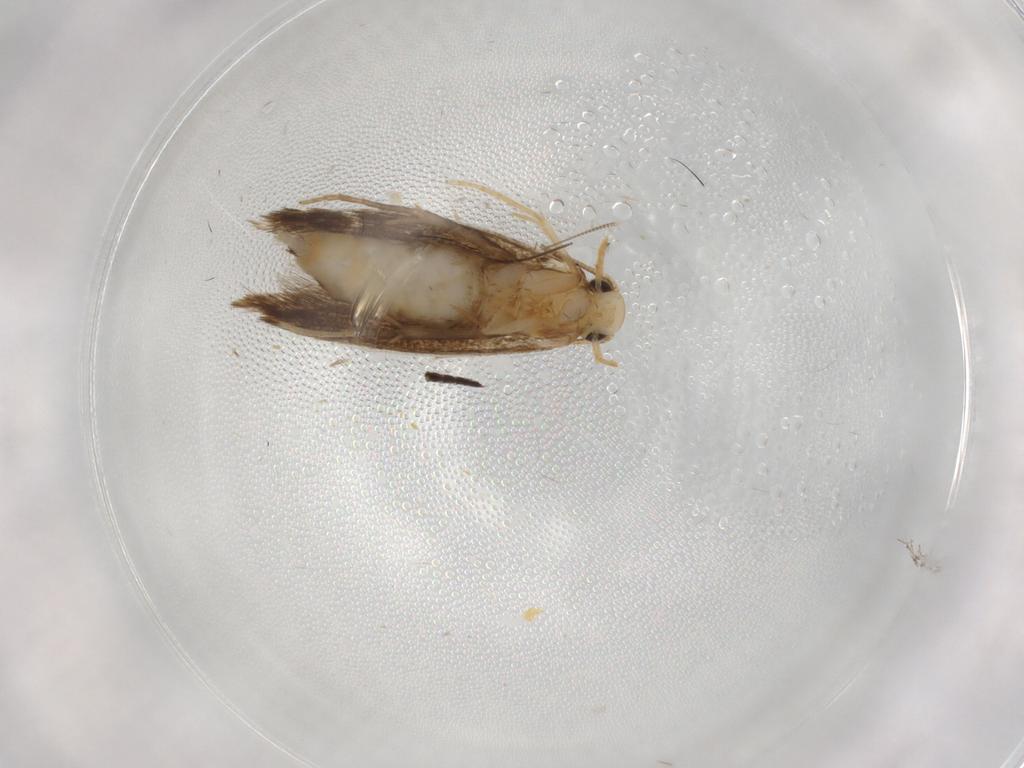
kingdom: Animalia
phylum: Arthropoda
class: Insecta
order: Lepidoptera
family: Tineidae
